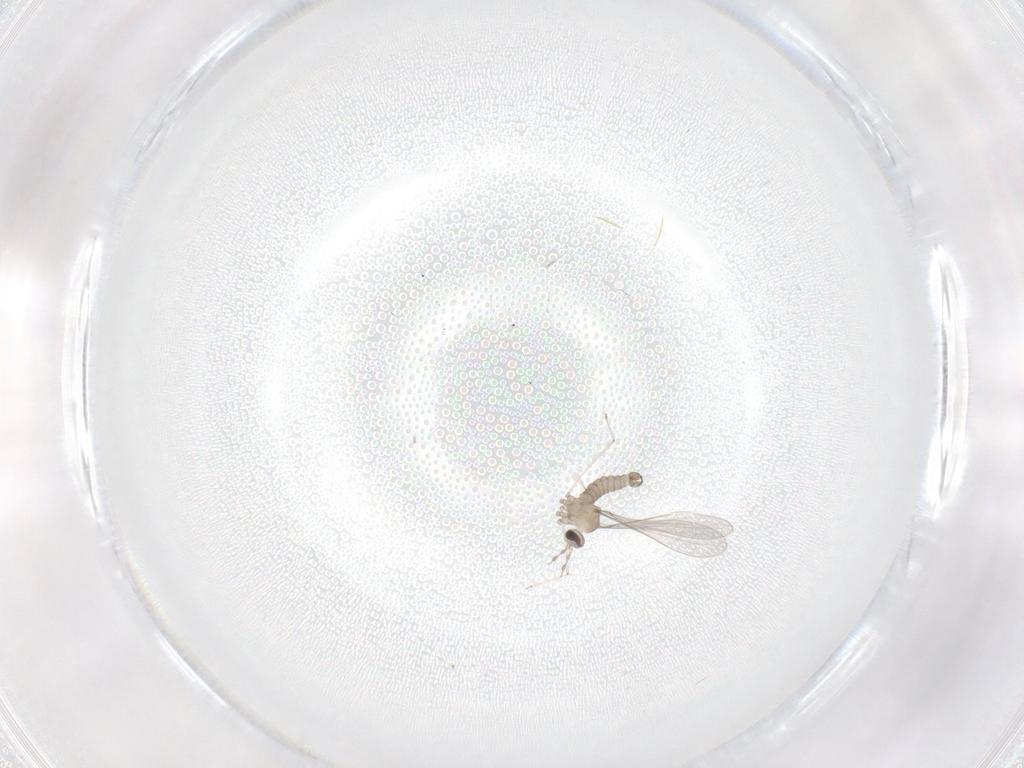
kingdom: Animalia
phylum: Arthropoda
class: Insecta
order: Diptera
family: Cecidomyiidae
